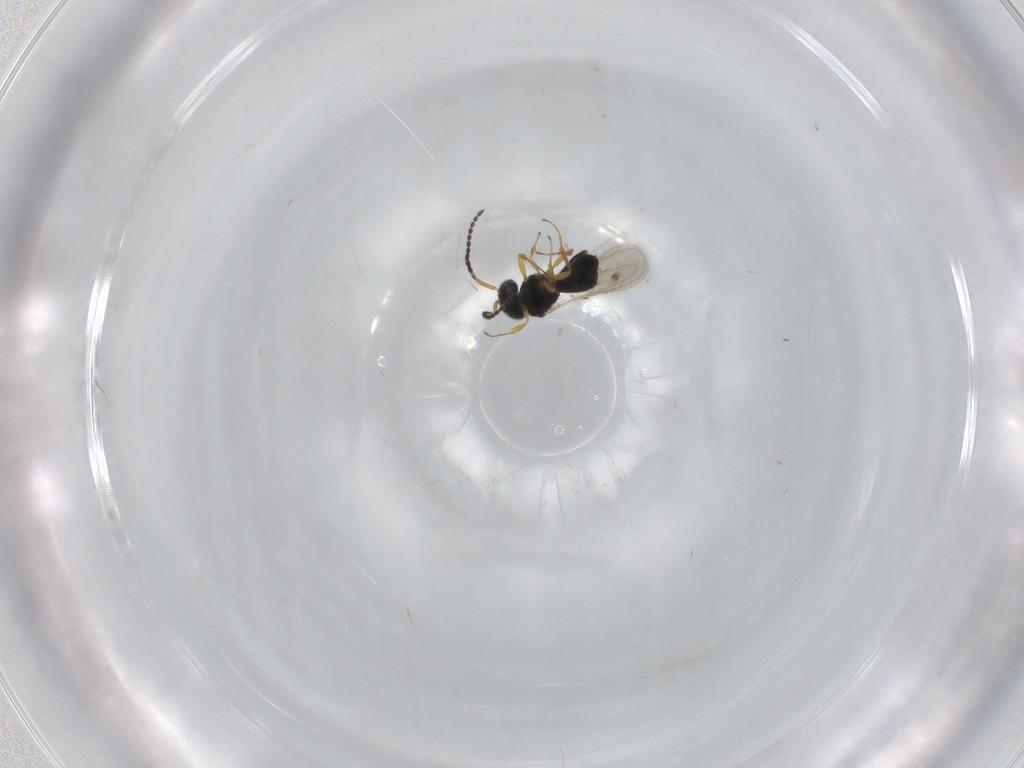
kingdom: Animalia
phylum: Arthropoda
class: Insecta
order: Hymenoptera
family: Scelionidae
